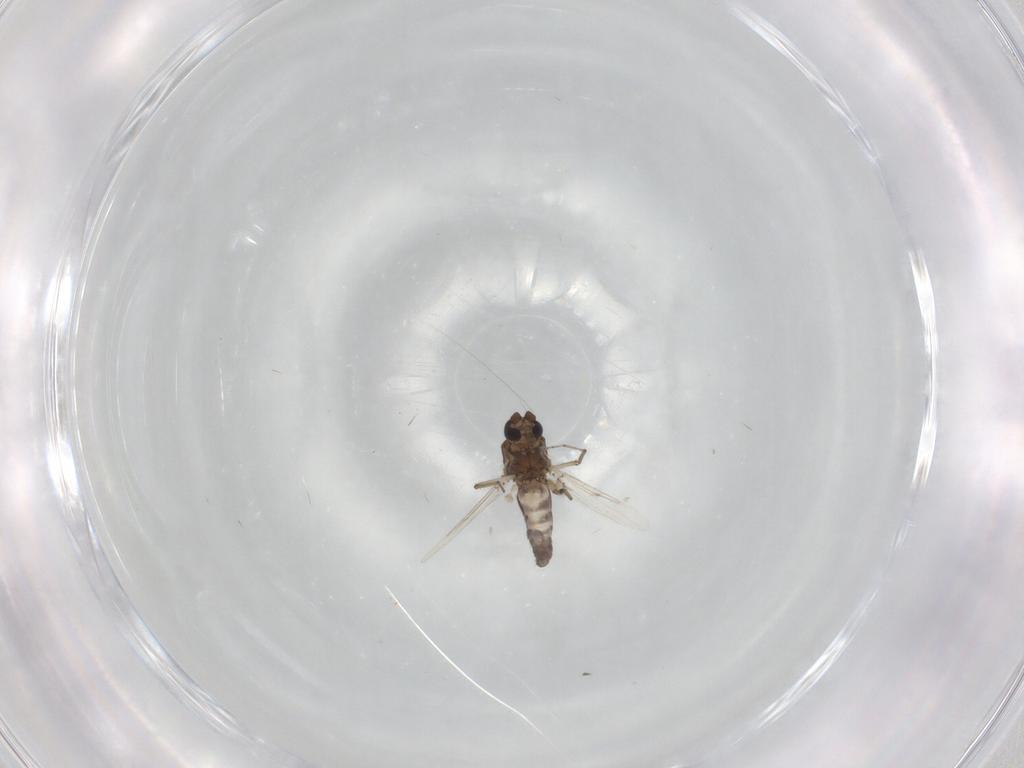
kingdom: Animalia
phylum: Arthropoda
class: Insecta
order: Diptera
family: Ceratopogonidae
